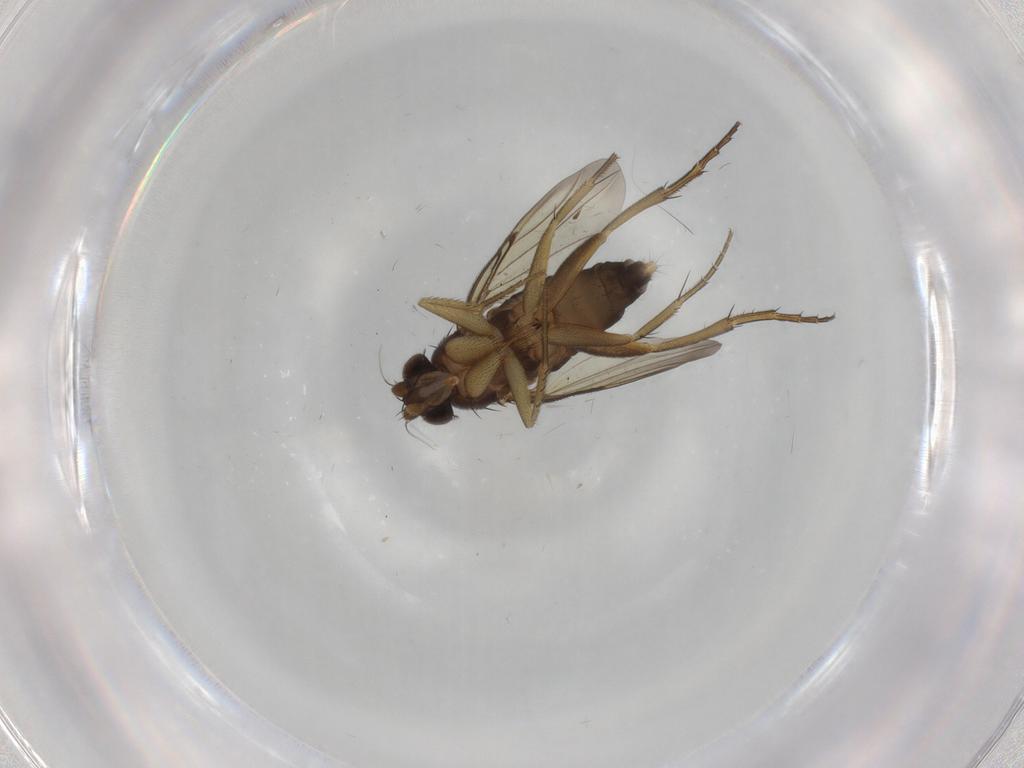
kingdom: Animalia
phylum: Arthropoda
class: Insecta
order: Diptera
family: Phoridae
